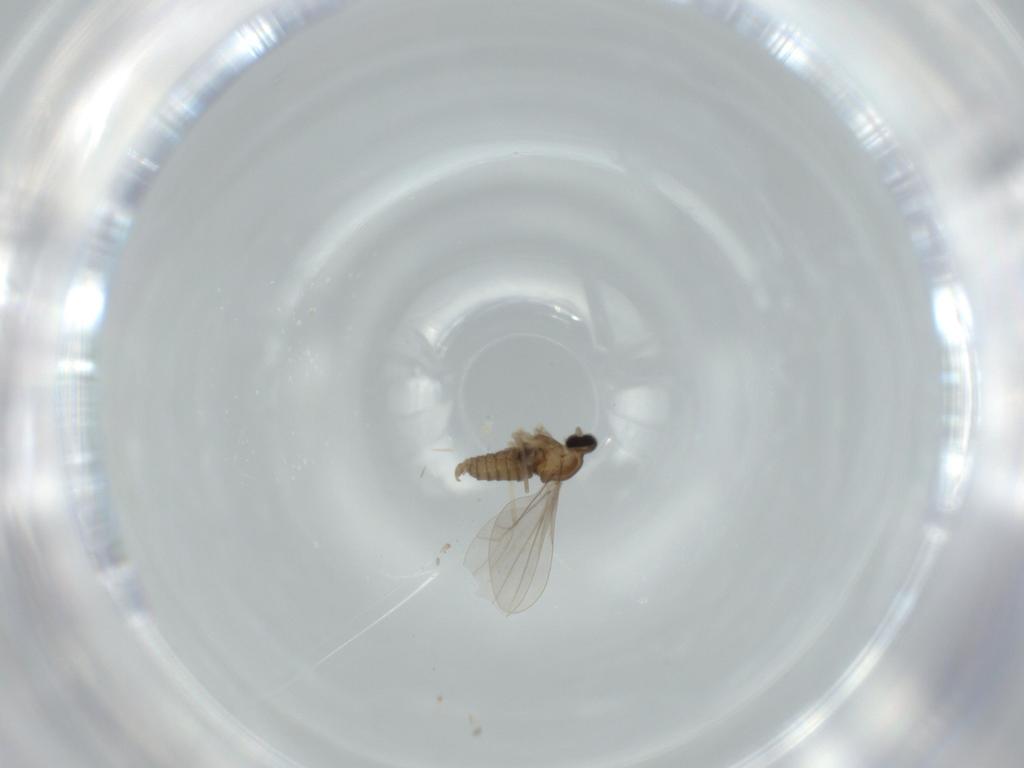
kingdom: Animalia
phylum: Arthropoda
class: Insecta
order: Diptera
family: Cecidomyiidae
